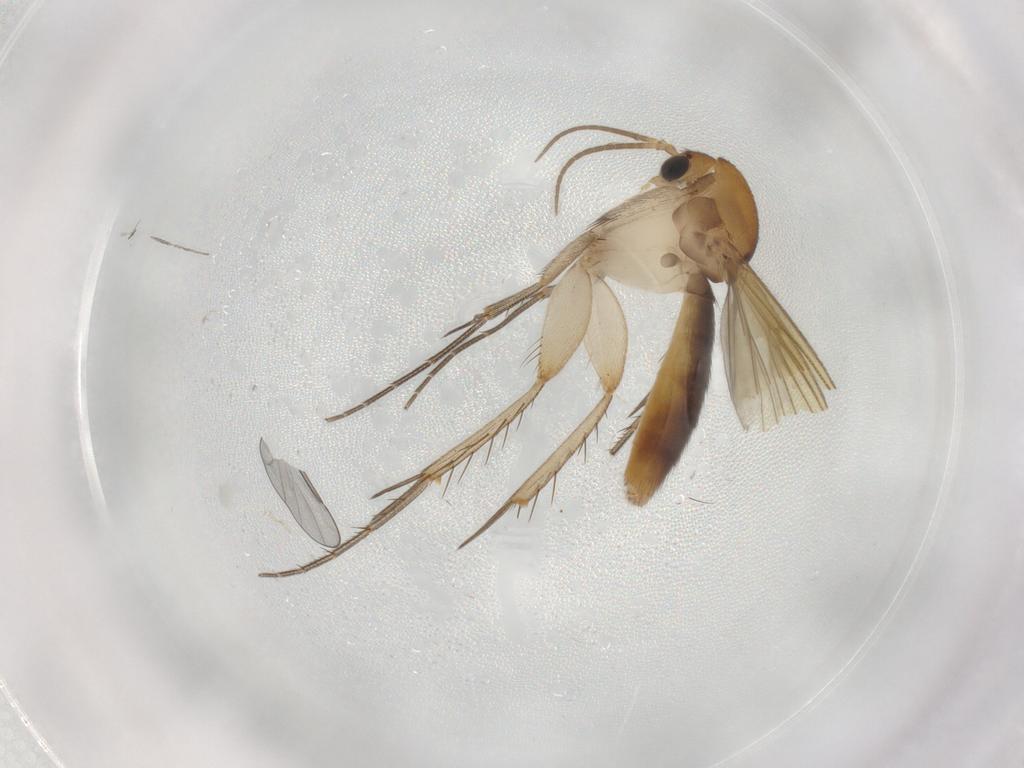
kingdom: Animalia
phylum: Arthropoda
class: Insecta
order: Diptera
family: Mycetophilidae
